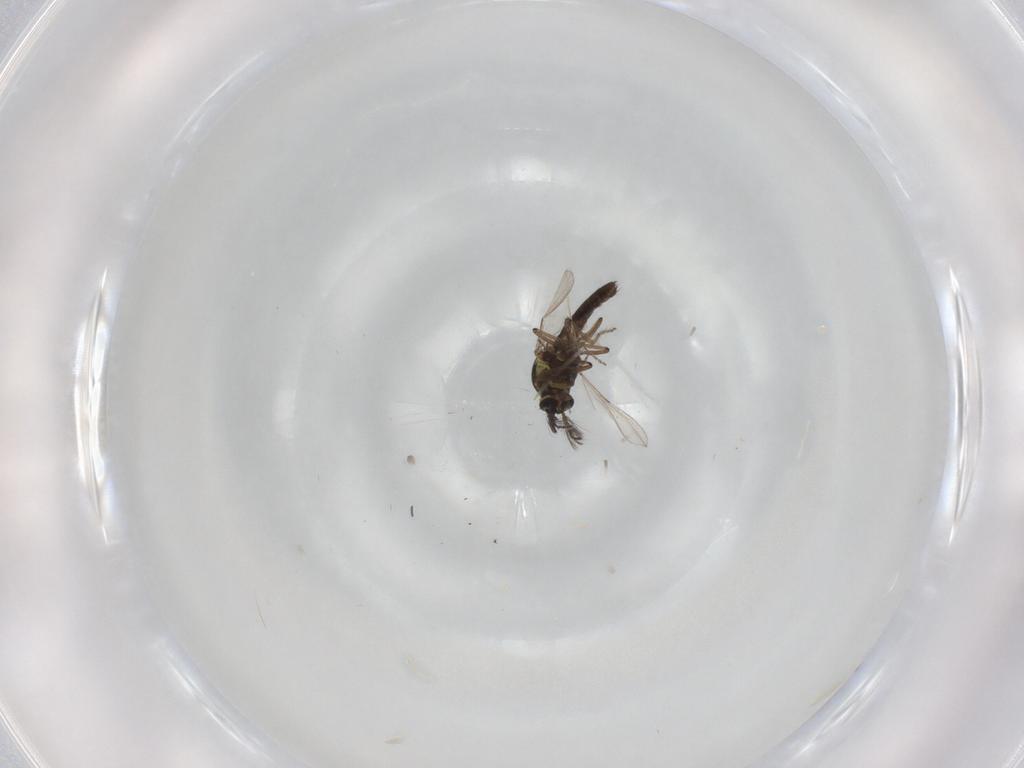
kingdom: Animalia
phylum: Arthropoda
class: Insecta
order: Diptera
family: Ceratopogonidae
